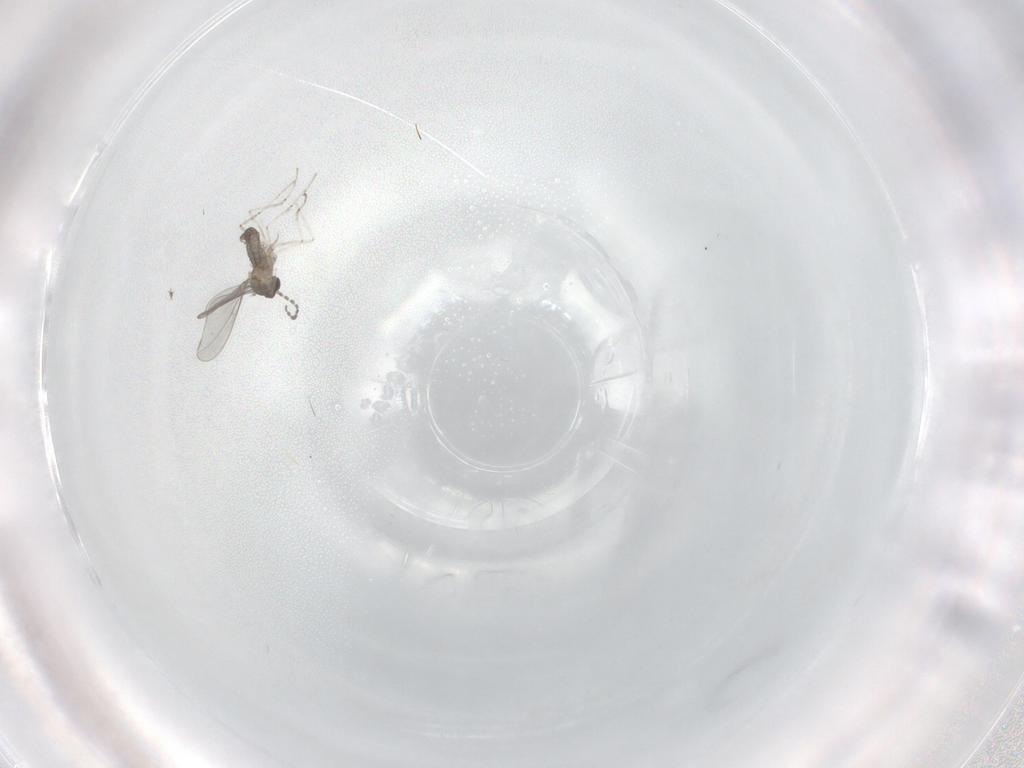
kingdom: Animalia
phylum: Arthropoda
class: Insecta
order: Diptera
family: Cecidomyiidae
